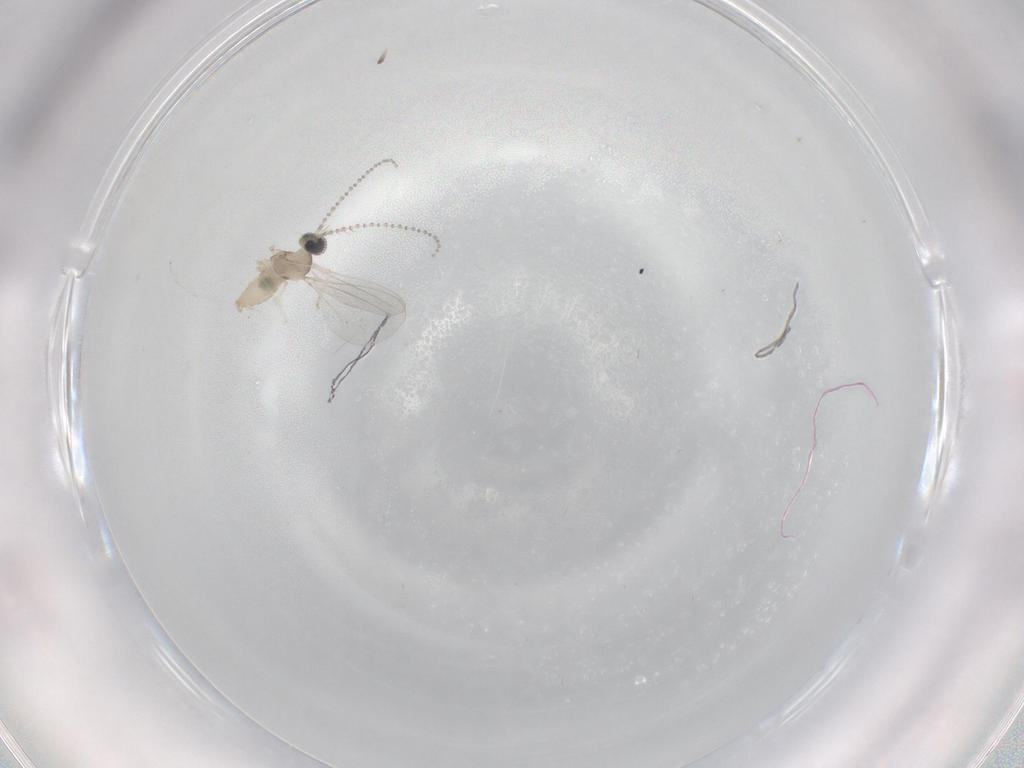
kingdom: Animalia
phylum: Arthropoda
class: Insecta
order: Diptera
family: Cecidomyiidae
